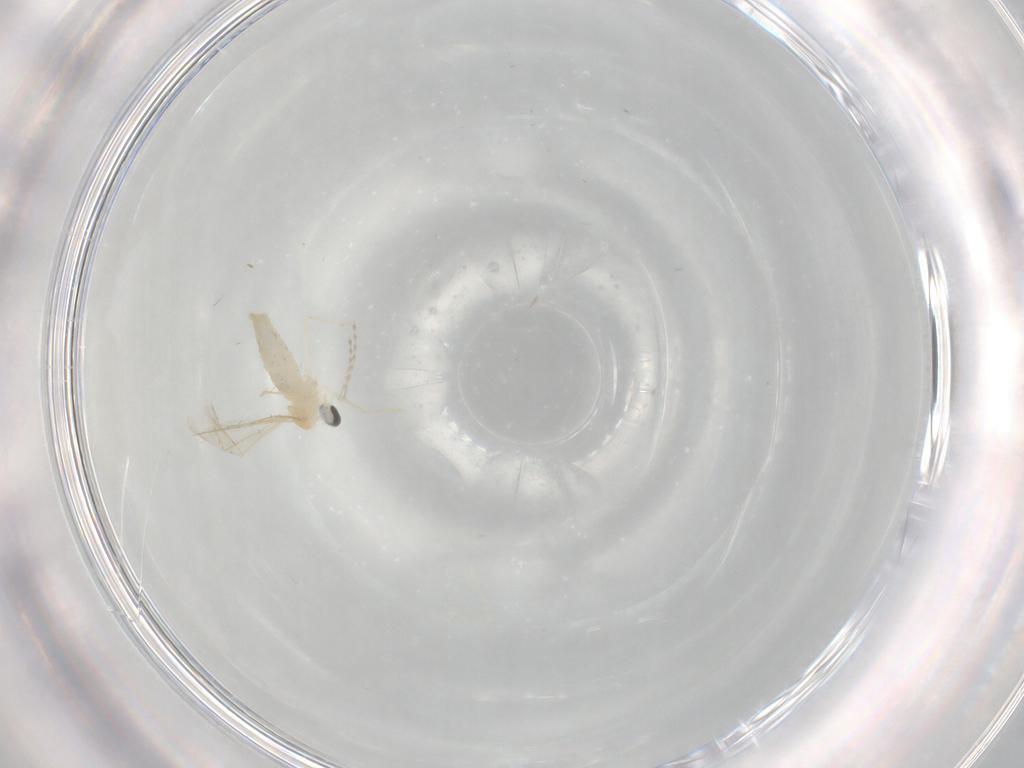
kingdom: Animalia
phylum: Arthropoda
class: Insecta
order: Diptera
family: Cecidomyiidae
